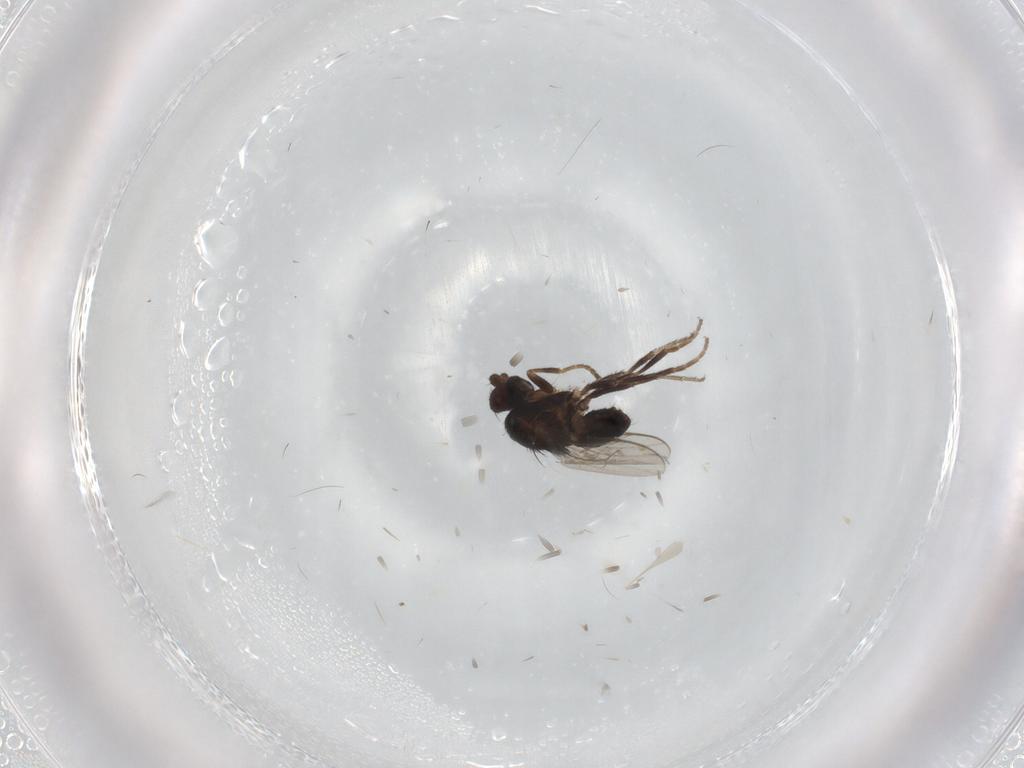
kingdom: Animalia
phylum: Arthropoda
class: Insecta
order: Diptera
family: Sphaeroceridae
